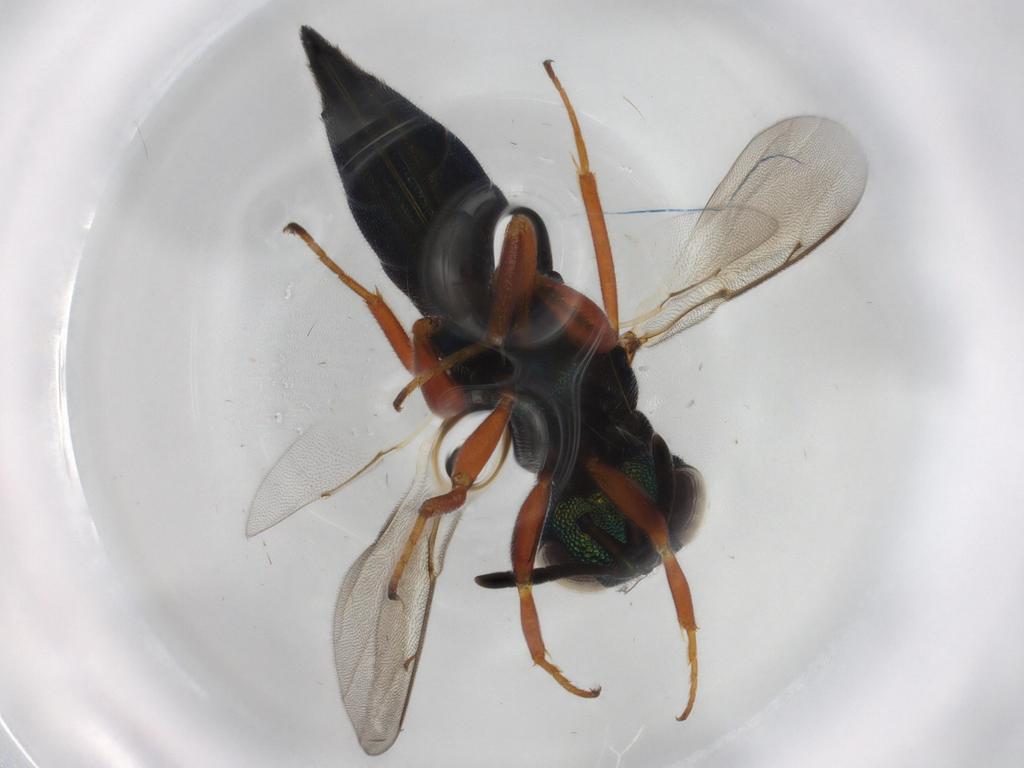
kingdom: Animalia
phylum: Arthropoda
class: Insecta
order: Hymenoptera
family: Lyciscidae
